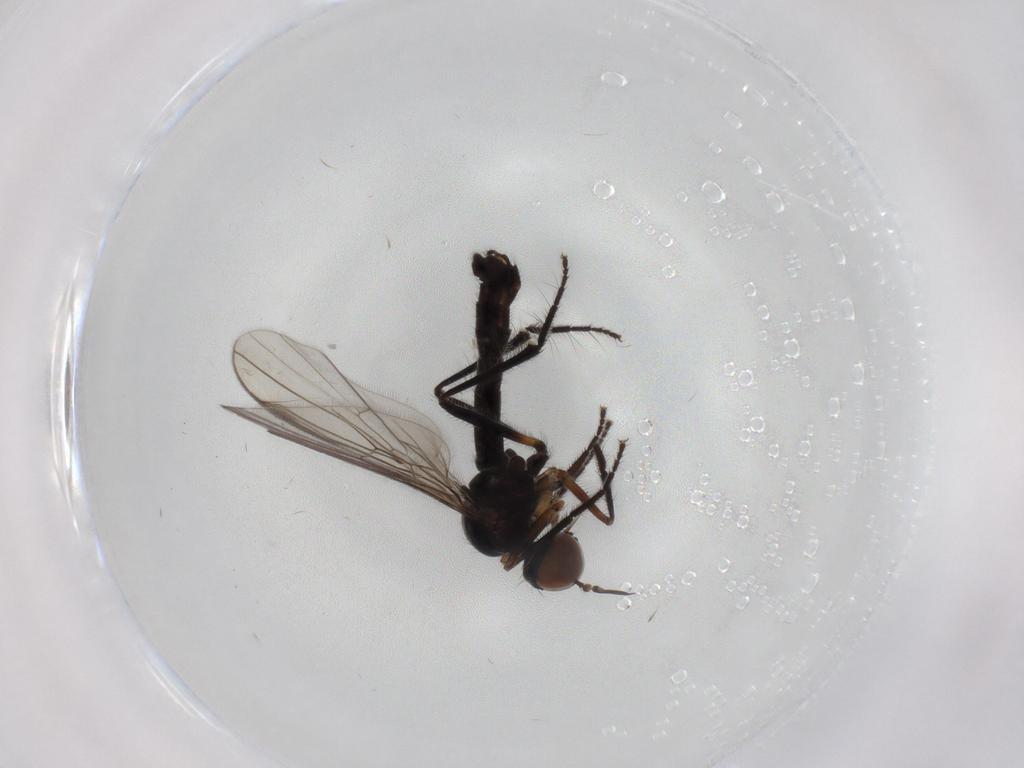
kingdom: Animalia
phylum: Arthropoda
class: Insecta
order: Diptera
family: Empididae
